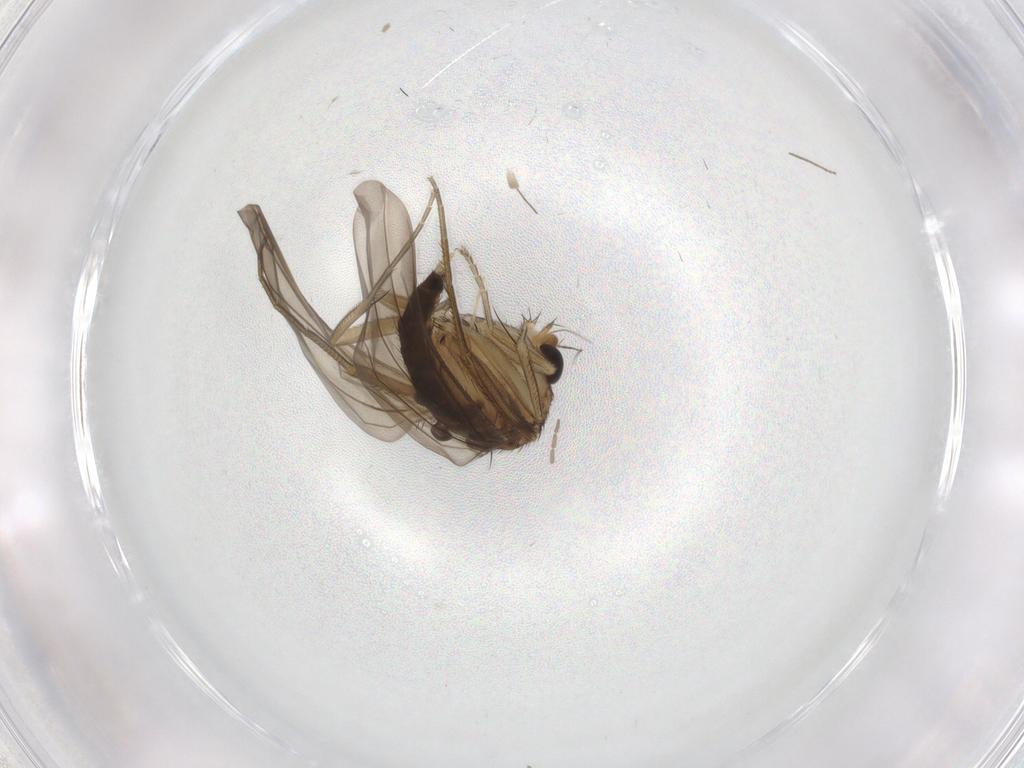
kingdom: Animalia
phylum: Arthropoda
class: Insecta
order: Diptera
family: Phoridae
